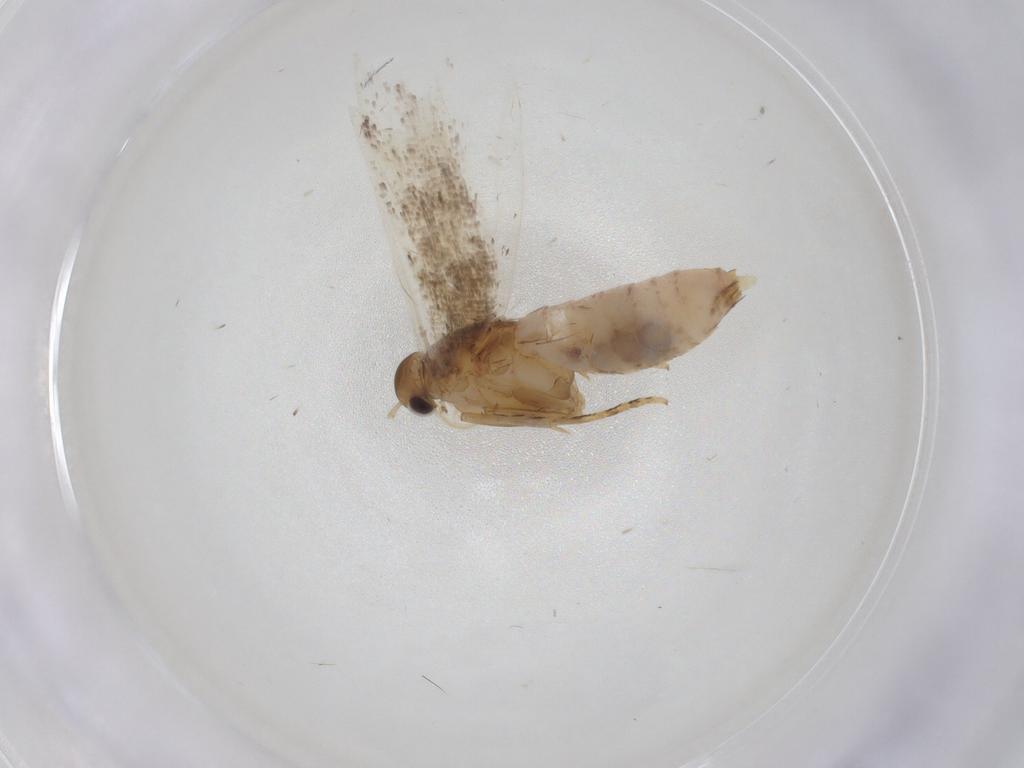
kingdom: Animalia
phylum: Arthropoda
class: Insecta
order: Lepidoptera
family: Gelechiidae
